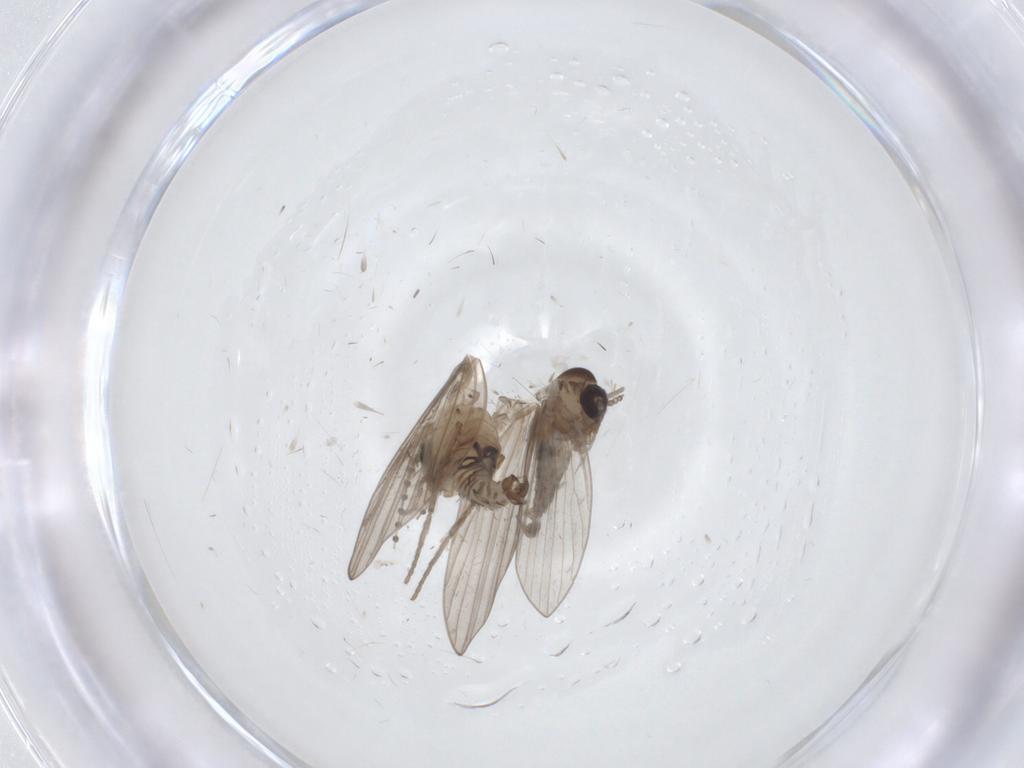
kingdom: Animalia
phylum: Arthropoda
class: Insecta
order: Diptera
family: Psychodidae
